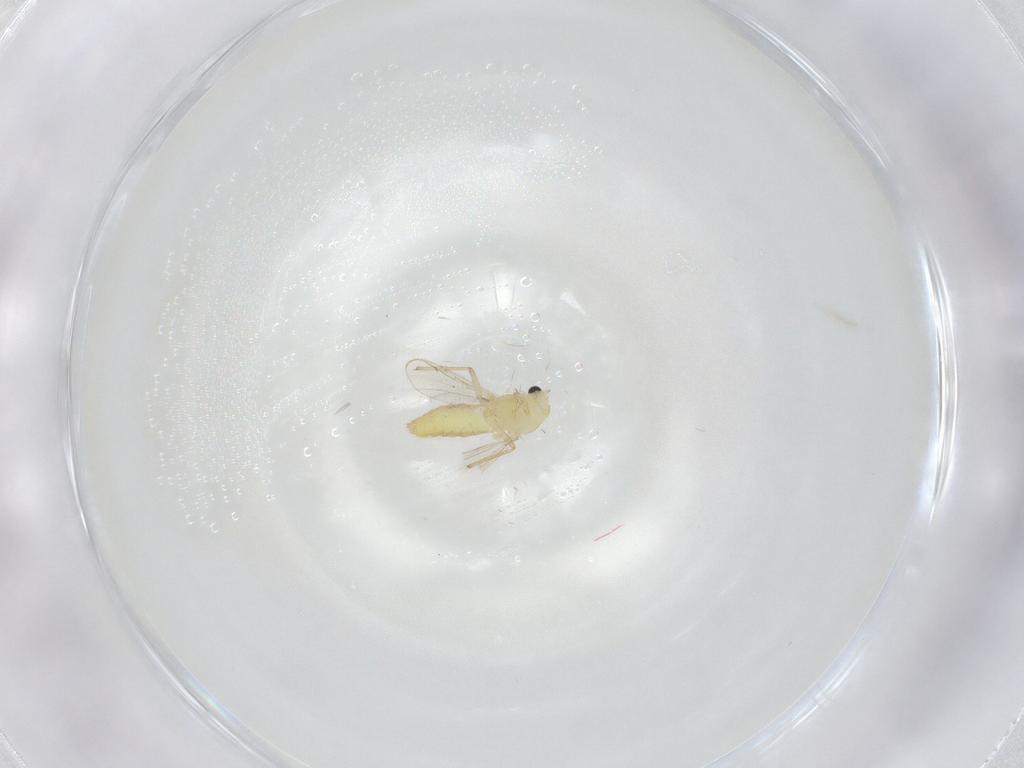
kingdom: Animalia
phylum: Arthropoda
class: Insecta
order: Diptera
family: Chironomidae
